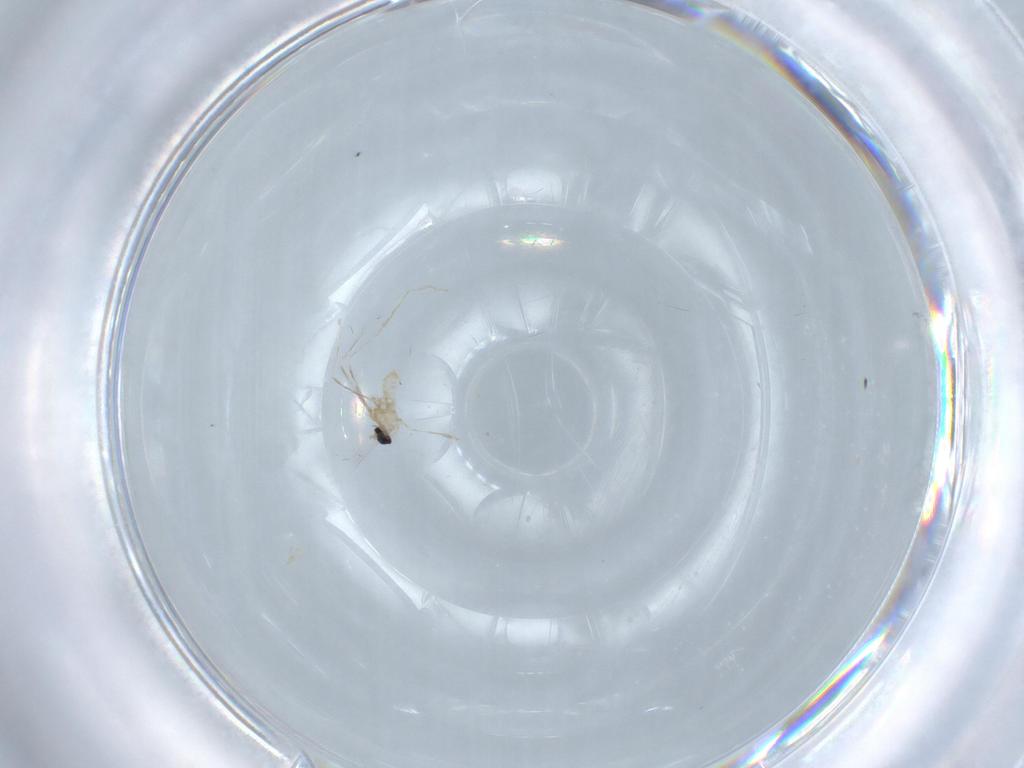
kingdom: Animalia
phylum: Arthropoda
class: Insecta
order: Diptera
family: Cecidomyiidae
